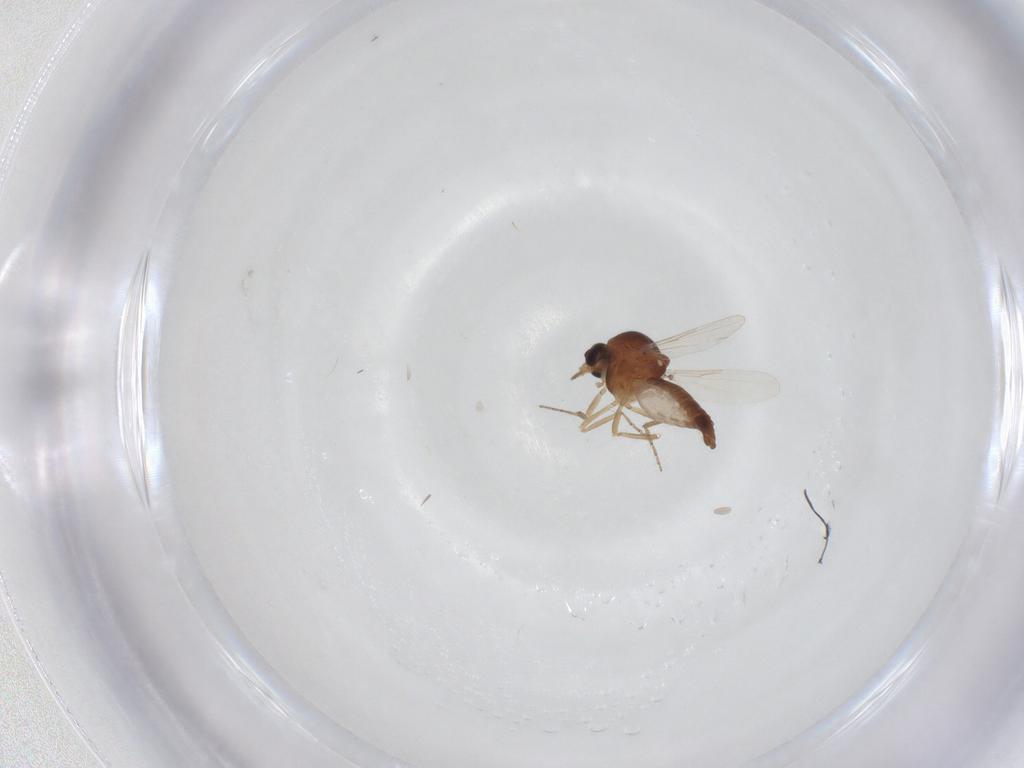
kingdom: Animalia
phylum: Arthropoda
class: Insecta
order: Diptera
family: Ceratopogonidae
